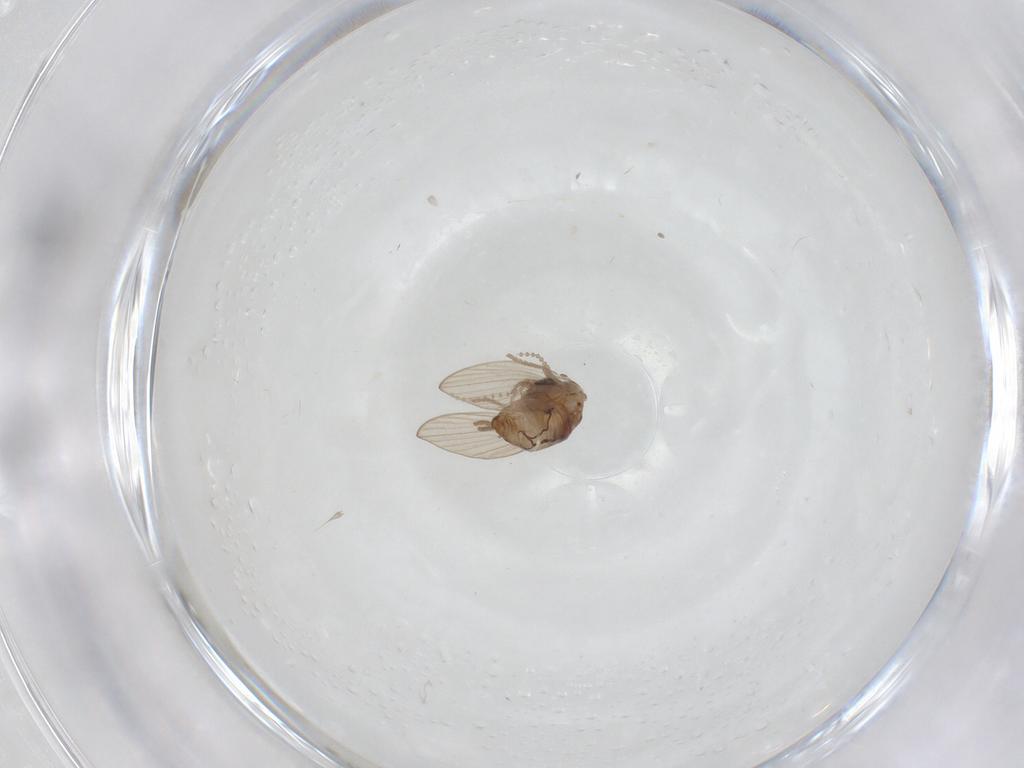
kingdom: Animalia
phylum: Arthropoda
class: Insecta
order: Diptera
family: Psychodidae
